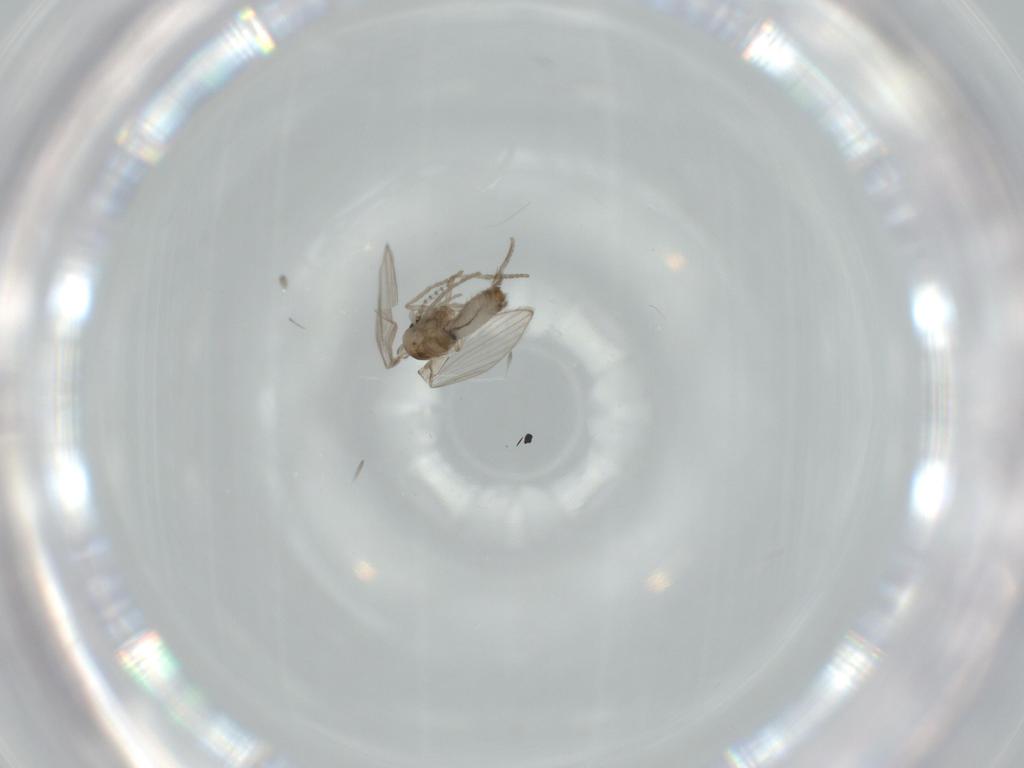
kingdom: Animalia
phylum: Arthropoda
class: Insecta
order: Diptera
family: Psychodidae
